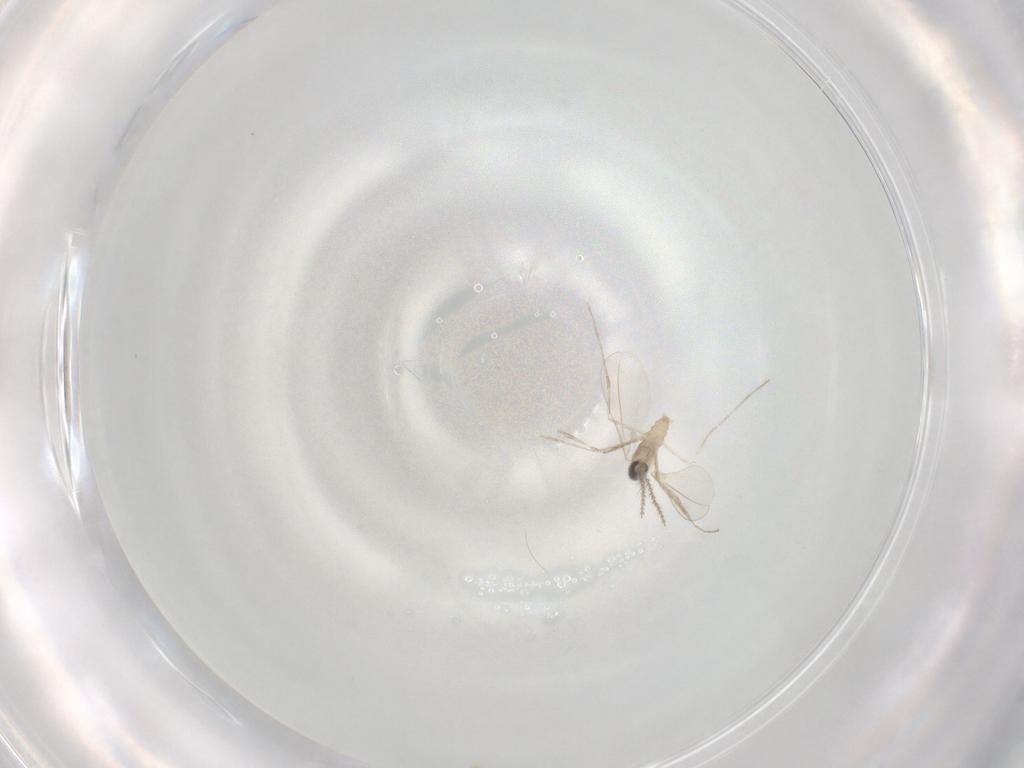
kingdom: Animalia
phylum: Arthropoda
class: Insecta
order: Diptera
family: Cecidomyiidae
